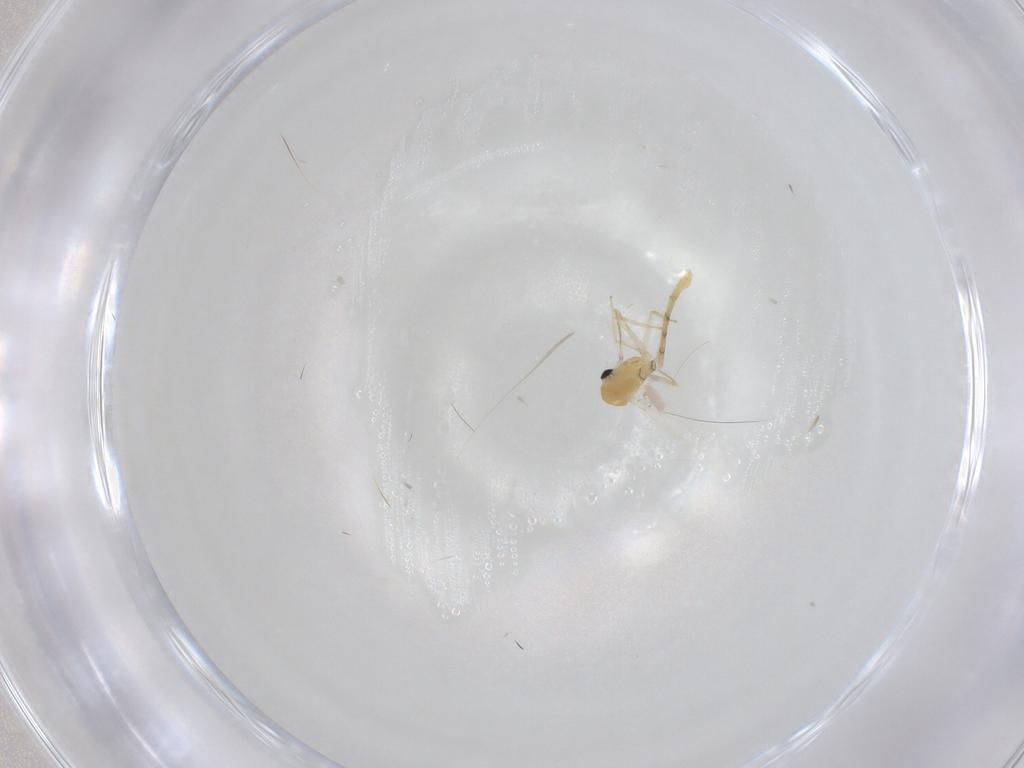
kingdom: Animalia
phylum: Arthropoda
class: Insecta
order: Diptera
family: Chironomidae
